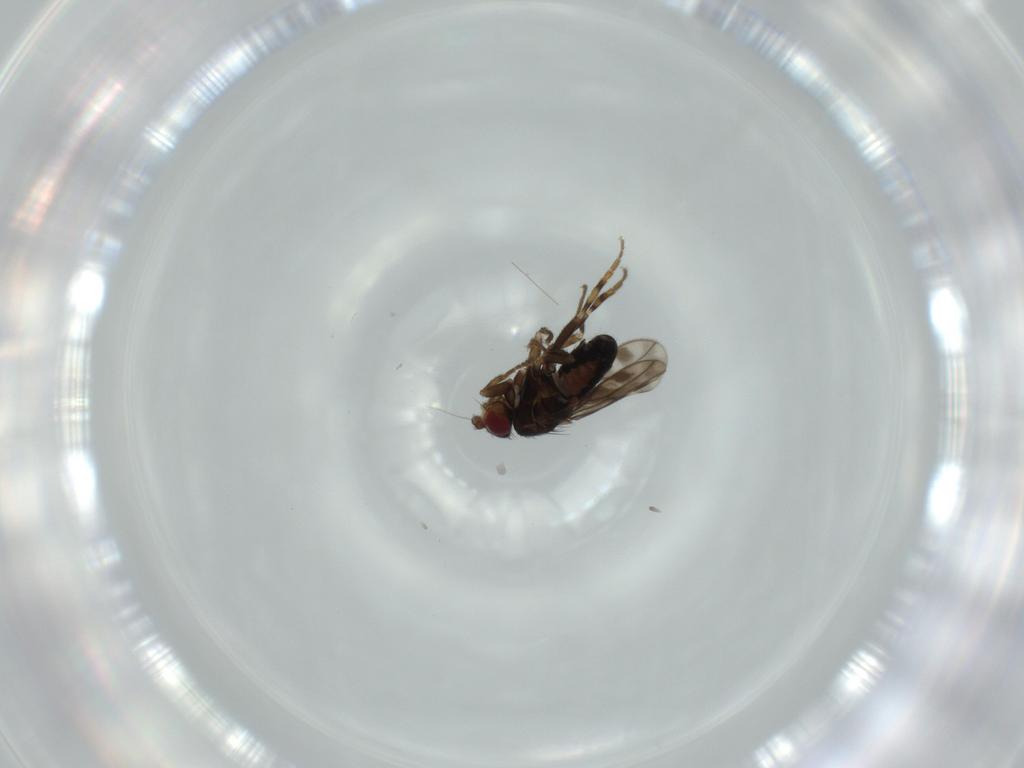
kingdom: Animalia
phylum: Arthropoda
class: Insecta
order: Diptera
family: Sphaeroceridae
